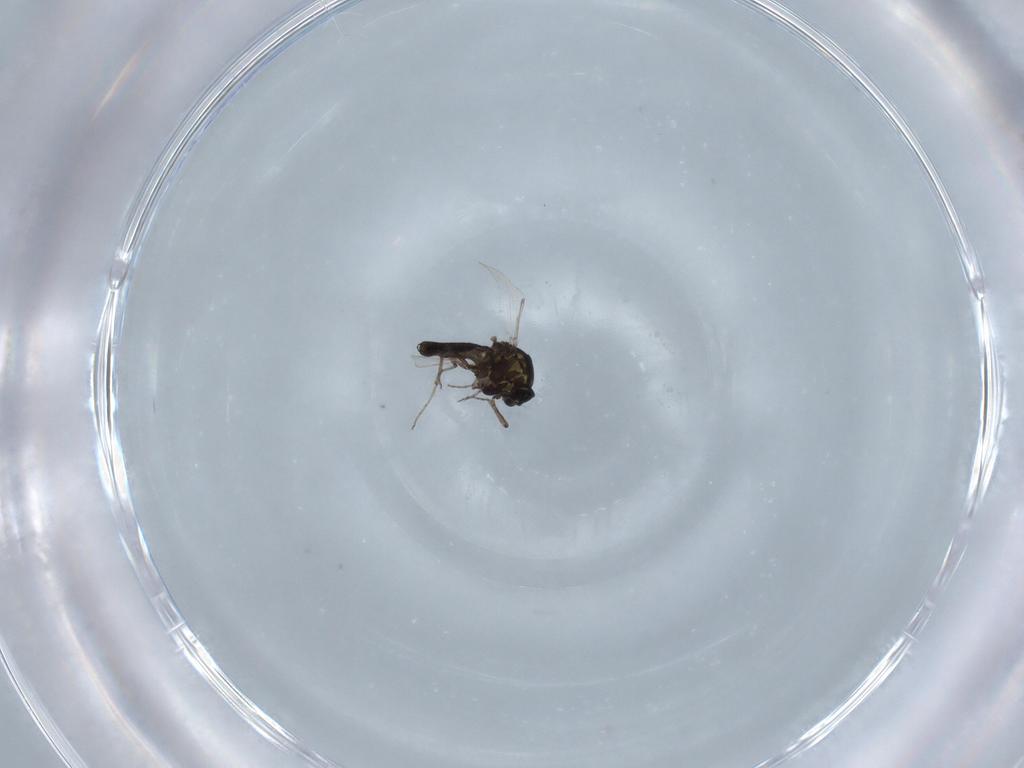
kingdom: Animalia
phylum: Arthropoda
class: Insecta
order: Diptera
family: Ceratopogonidae
